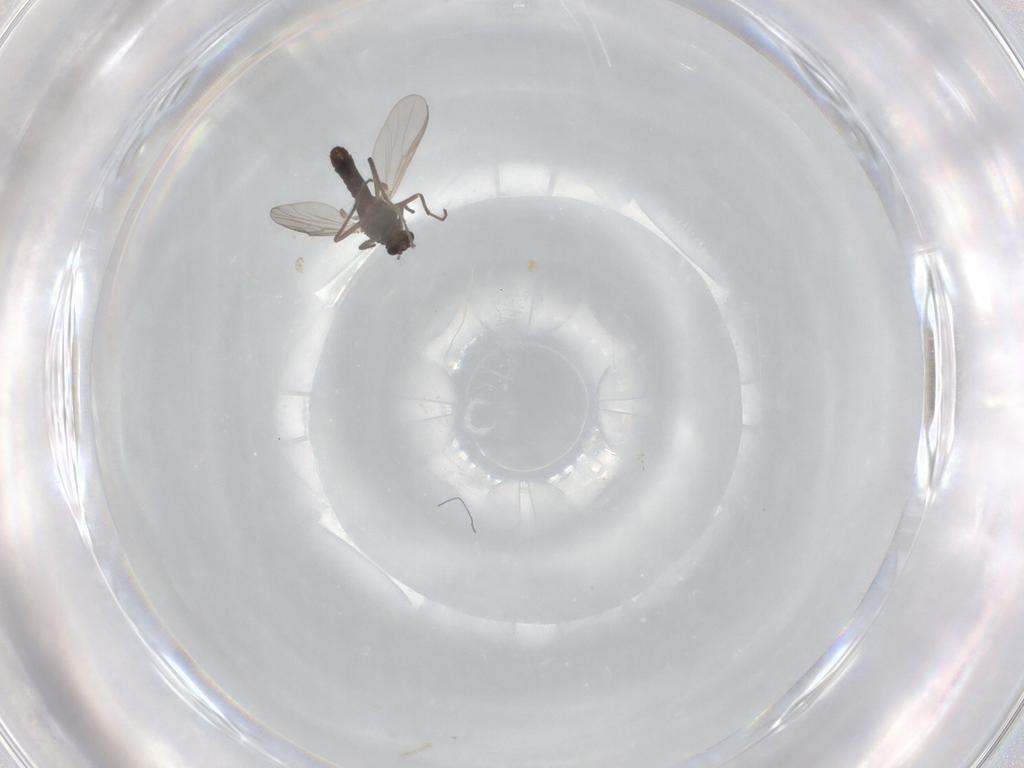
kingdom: Animalia
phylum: Arthropoda
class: Insecta
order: Diptera
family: Chironomidae
